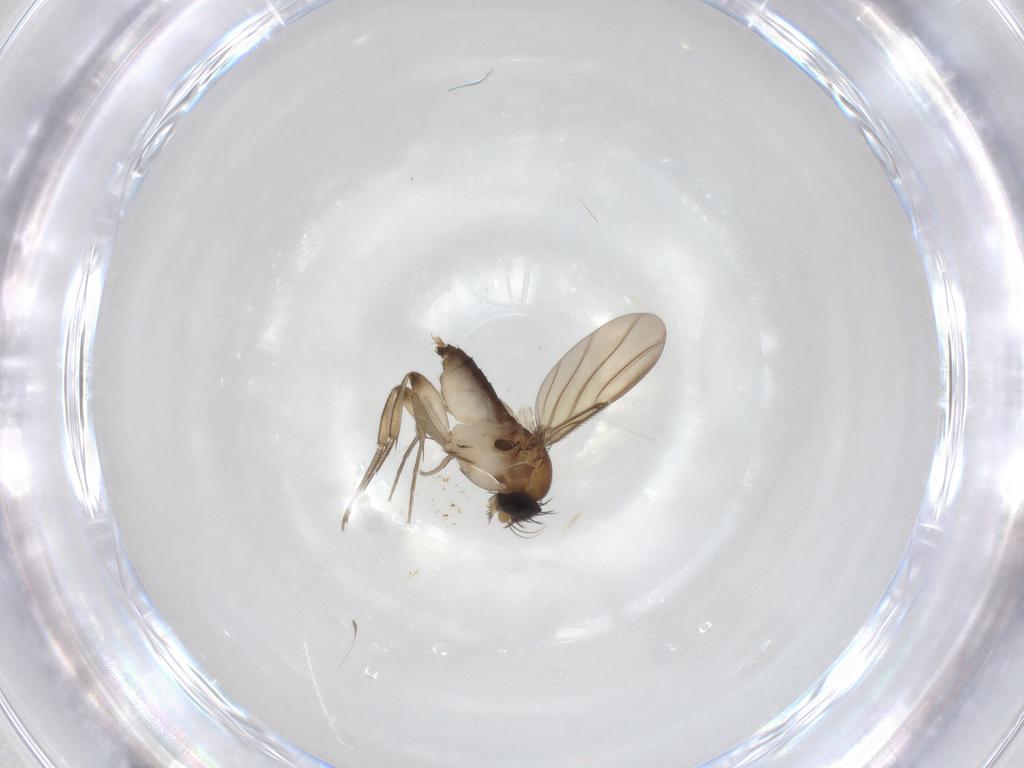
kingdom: Animalia
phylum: Arthropoda
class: Insecta
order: Diptera
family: Phoridae
